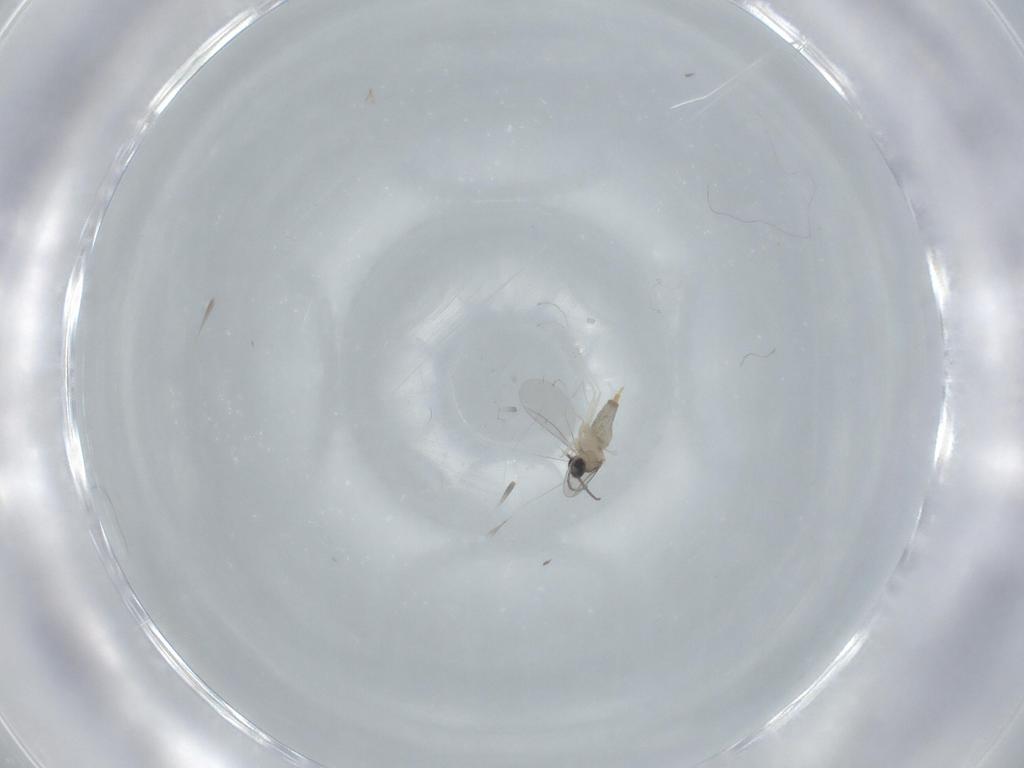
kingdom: Animalia
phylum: Arthropoda
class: Insecta
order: Diptera
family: Cecidomyiidae
